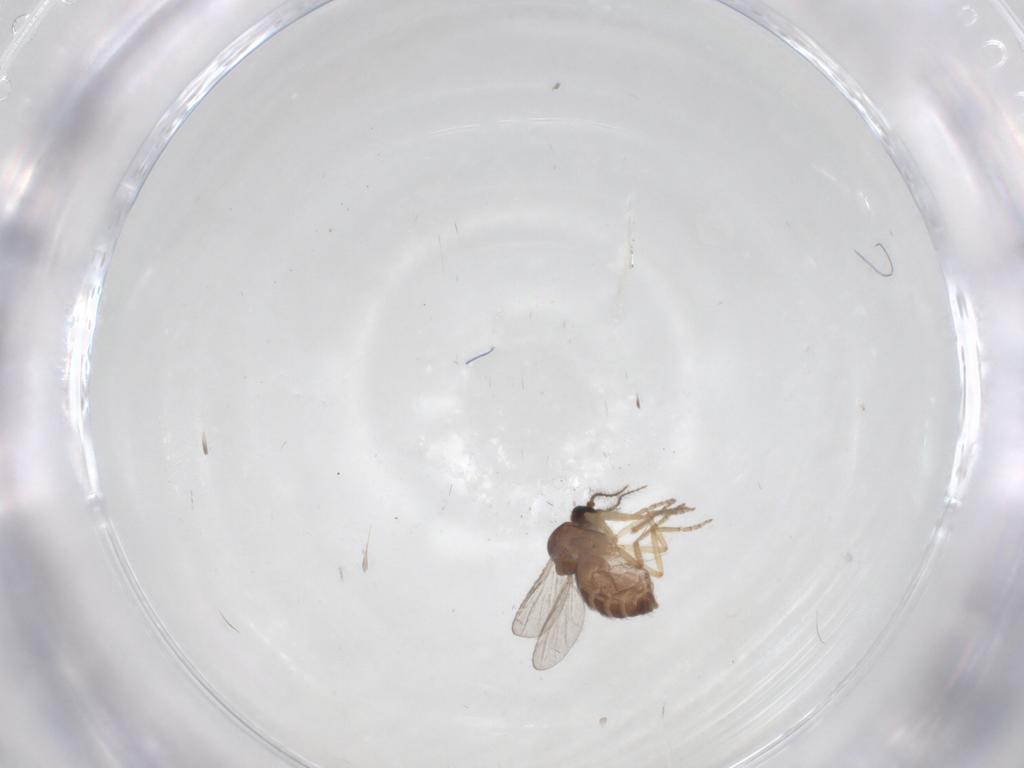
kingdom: Animalia
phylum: Arthropoda
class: Insecta
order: Diptera
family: Ceratopogonidae
